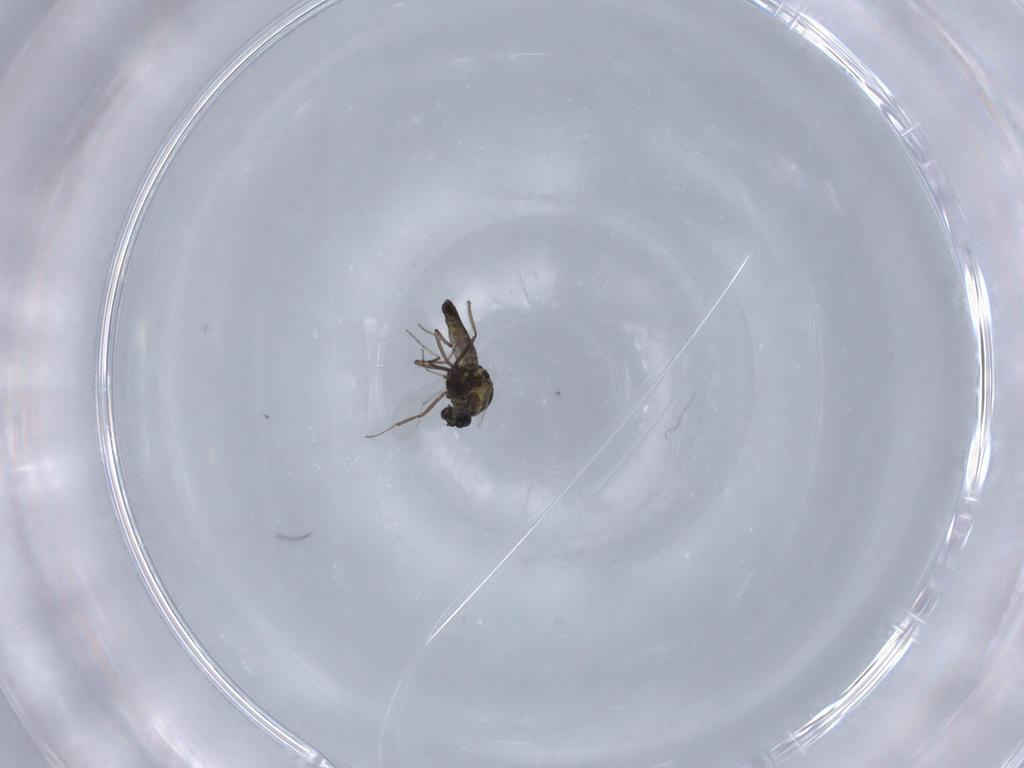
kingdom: Animalia
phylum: Arthropoda
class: Insecta
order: Diptera
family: Ceratopogonidae
